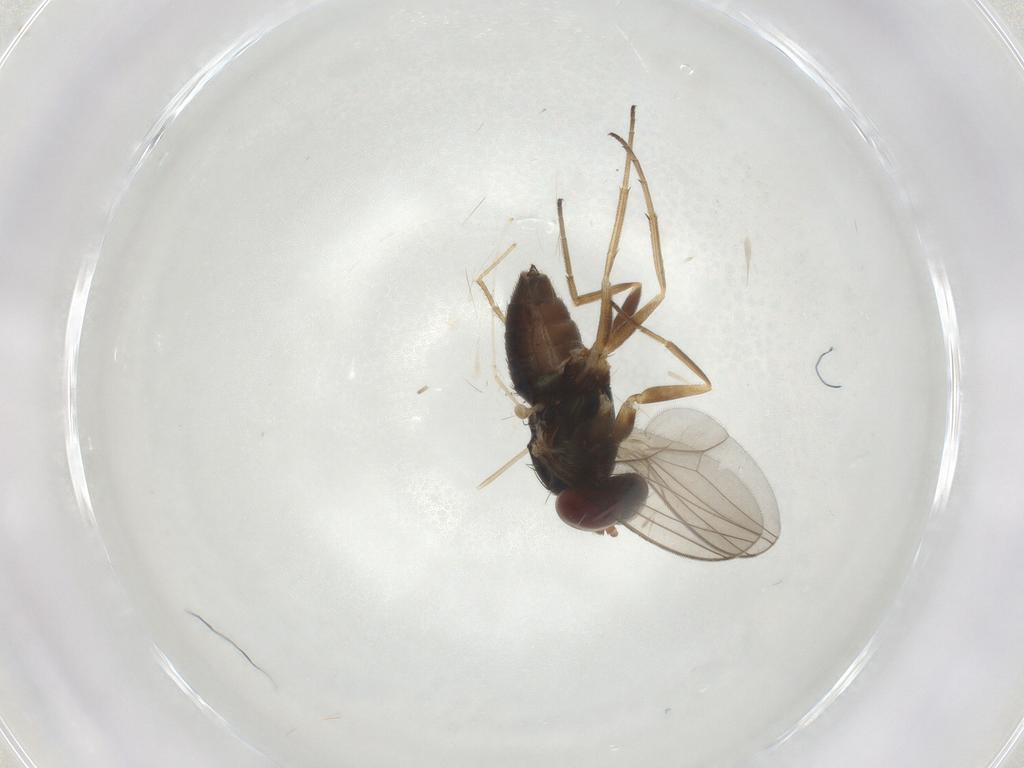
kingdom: Animalia
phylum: Arthropoda
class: Insecta
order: Diptera
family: Dolichopodidae
